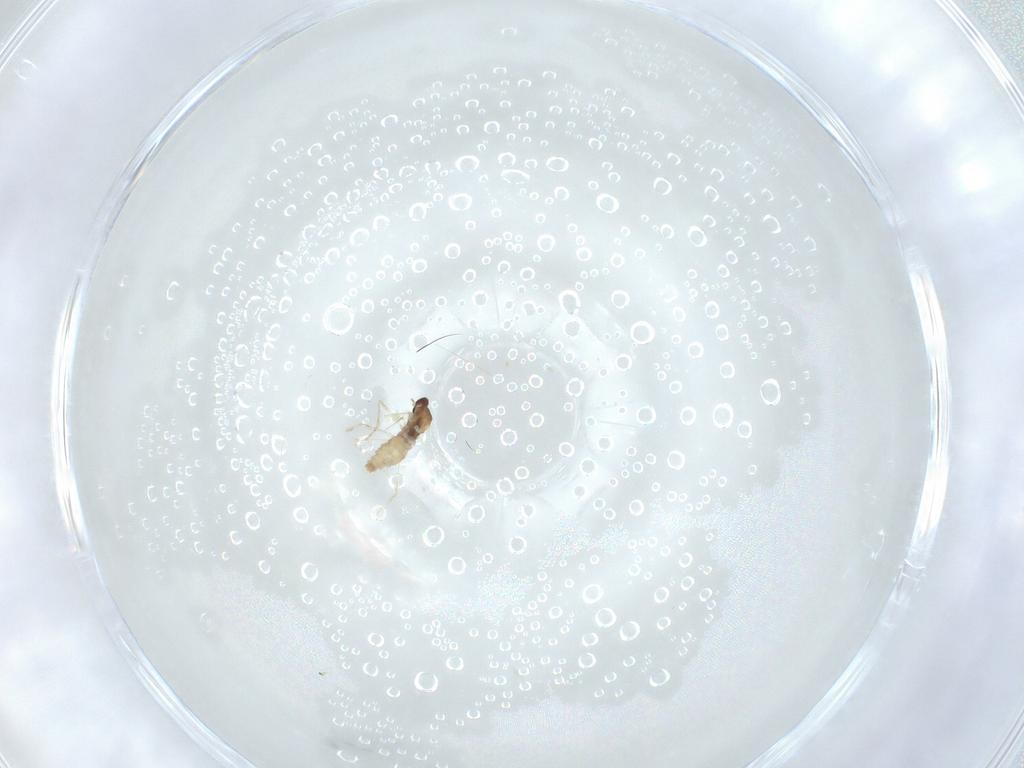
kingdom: Animalia
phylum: Arthropoda
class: Insecta
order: Diptera
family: Cecidomyiidae
